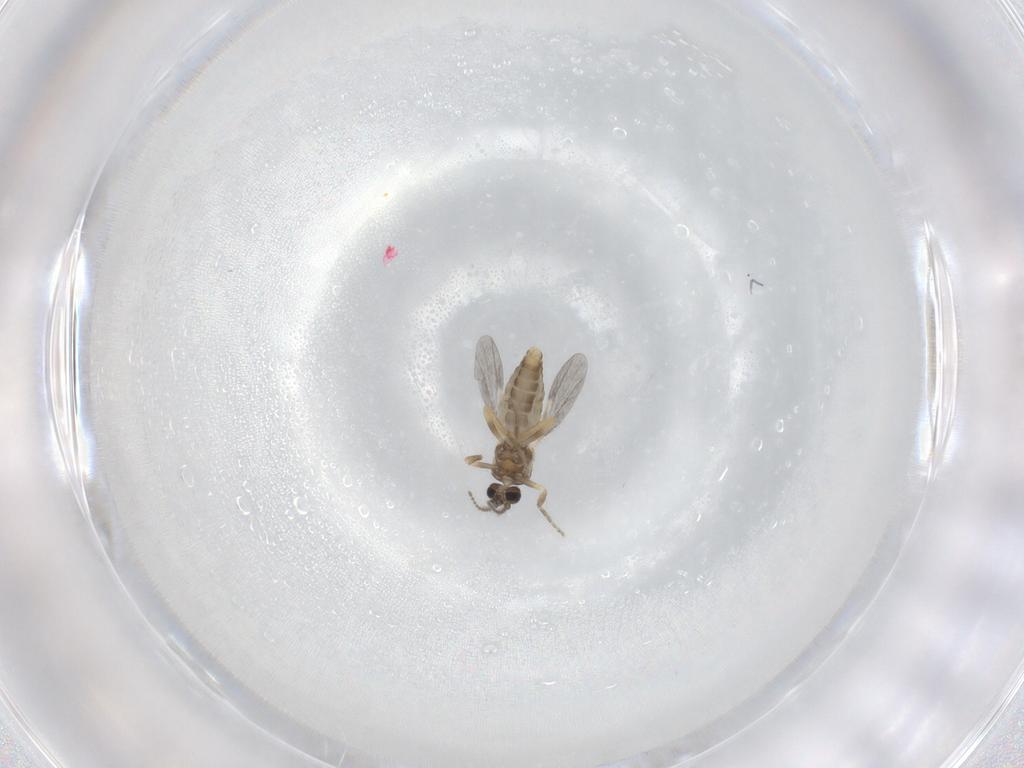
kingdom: Animalia
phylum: Arthropoda
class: Insecta
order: Diptera
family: Ceratopogonidae
